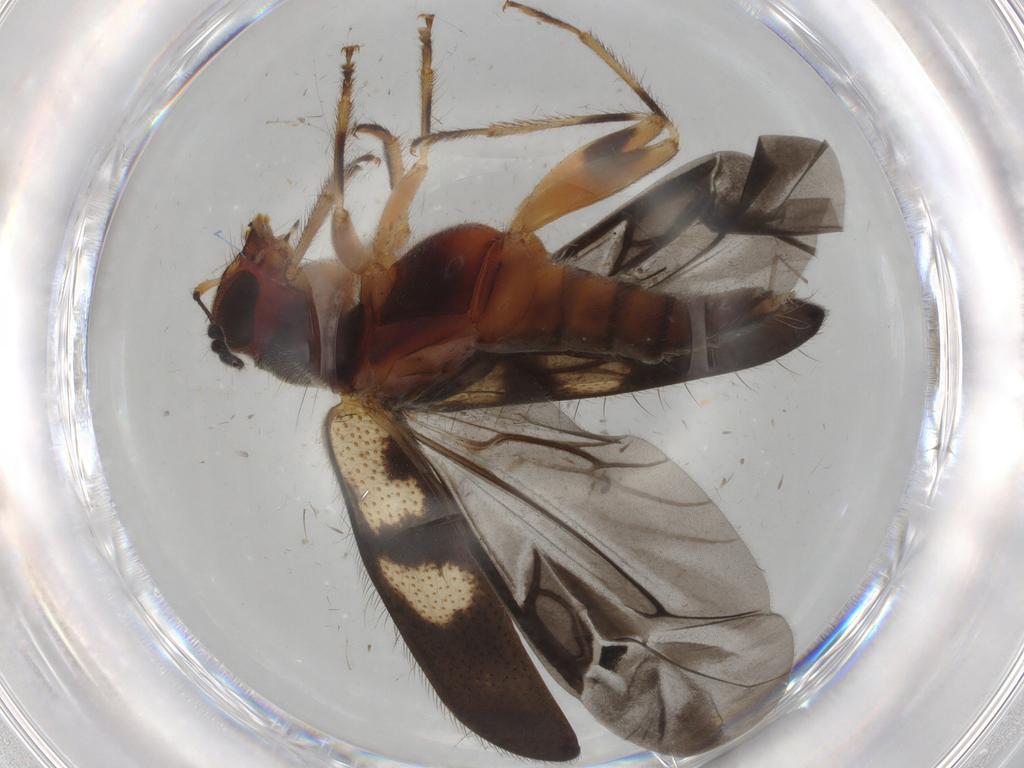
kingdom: Animalia
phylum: Arthropoda
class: Insecta
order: Coleoptera
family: Cleridae
